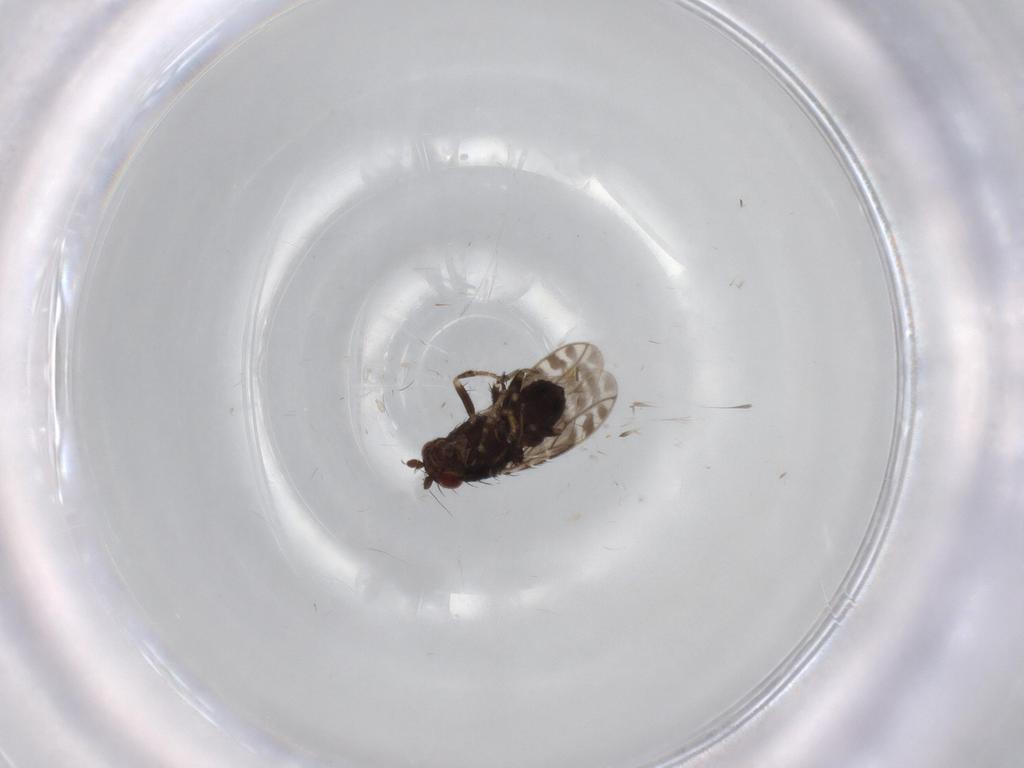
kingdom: Animalia
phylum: Arthropoda
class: Insecta
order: Diptera
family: Sphaeroceridae
